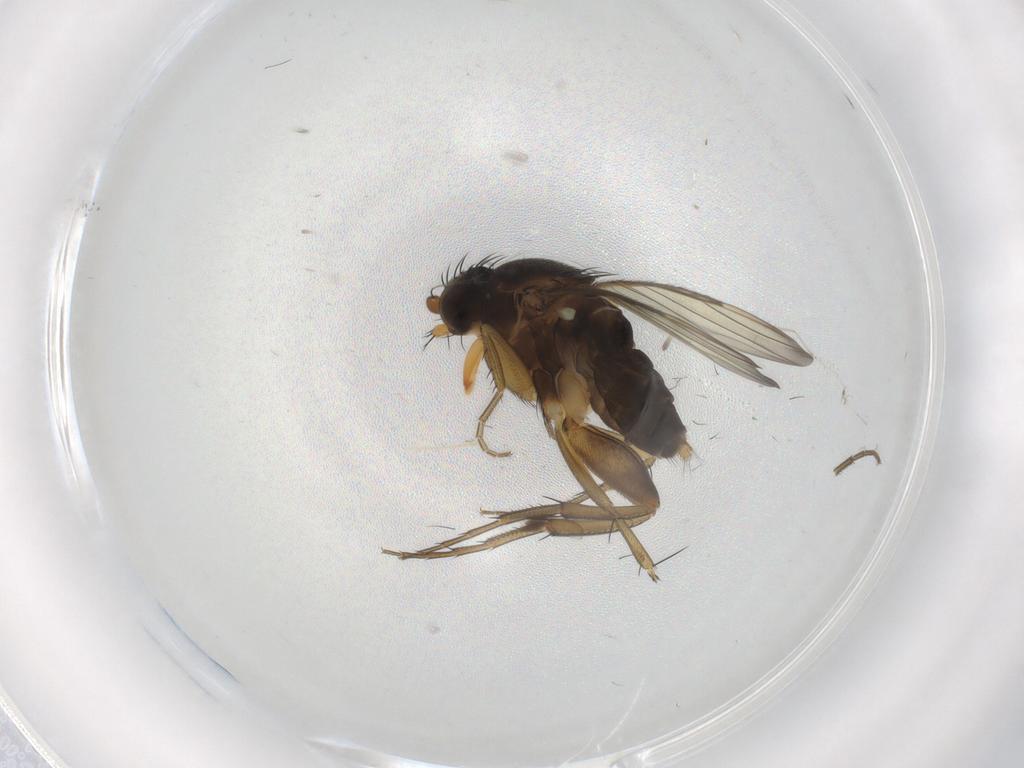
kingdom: Animalia
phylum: Arthropoda
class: Insecta
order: Diptera
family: Phoridae
